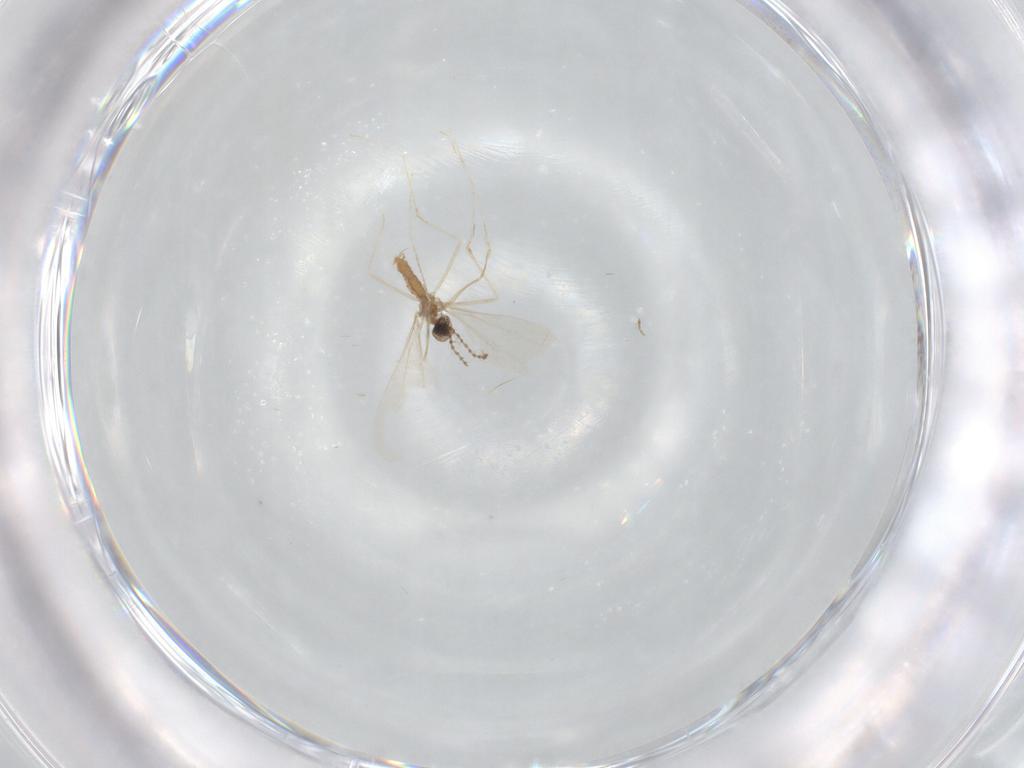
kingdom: Animalia
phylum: Arthropoda
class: Insecta
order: Diptera
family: Cecidomyiidae
